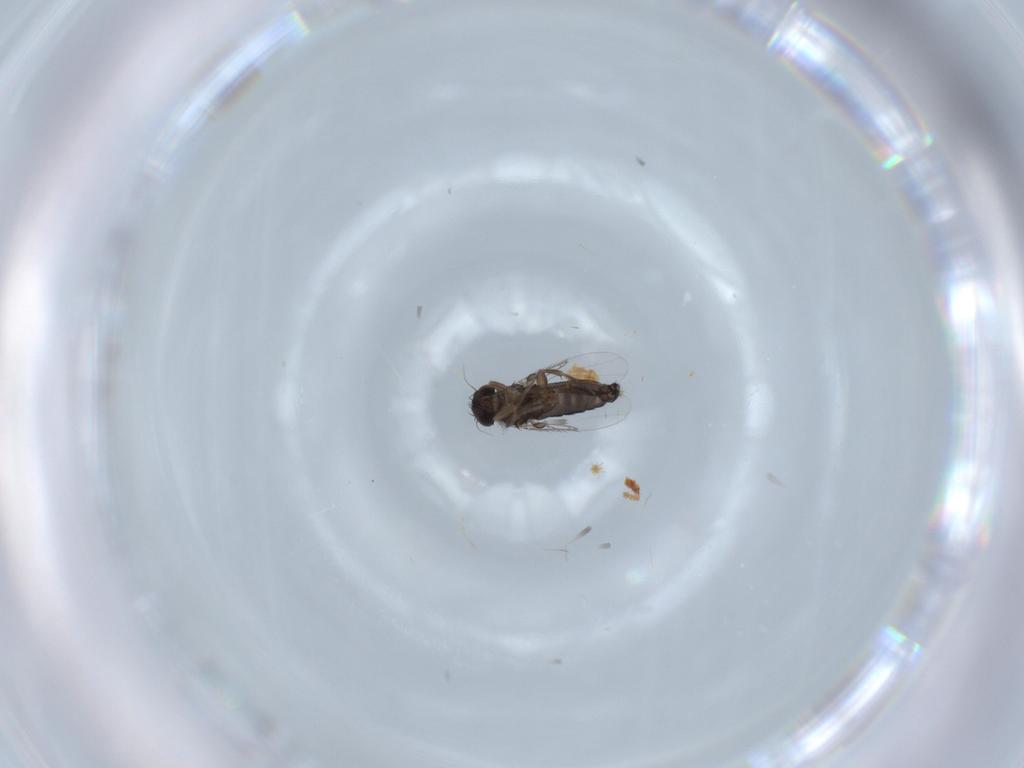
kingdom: Animalia
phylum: Arthropoda
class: Insecta
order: Diptera
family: Phoridae
